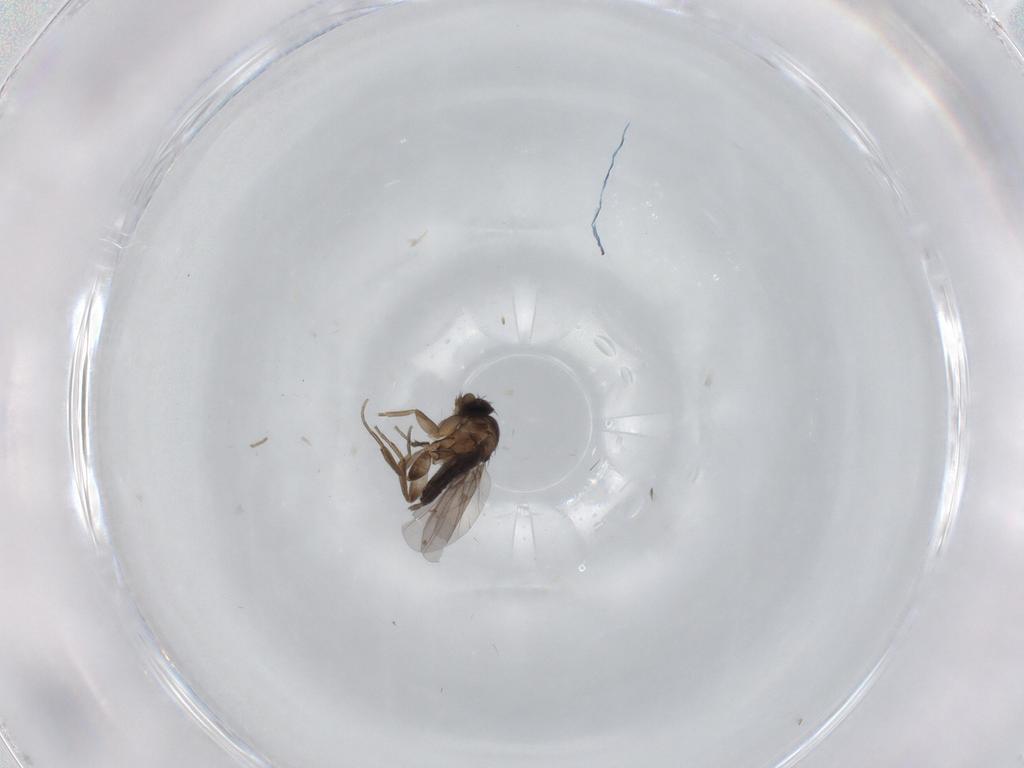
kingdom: Animalia
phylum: Arthropoda
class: Insecta
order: Diptera
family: Phoridae
